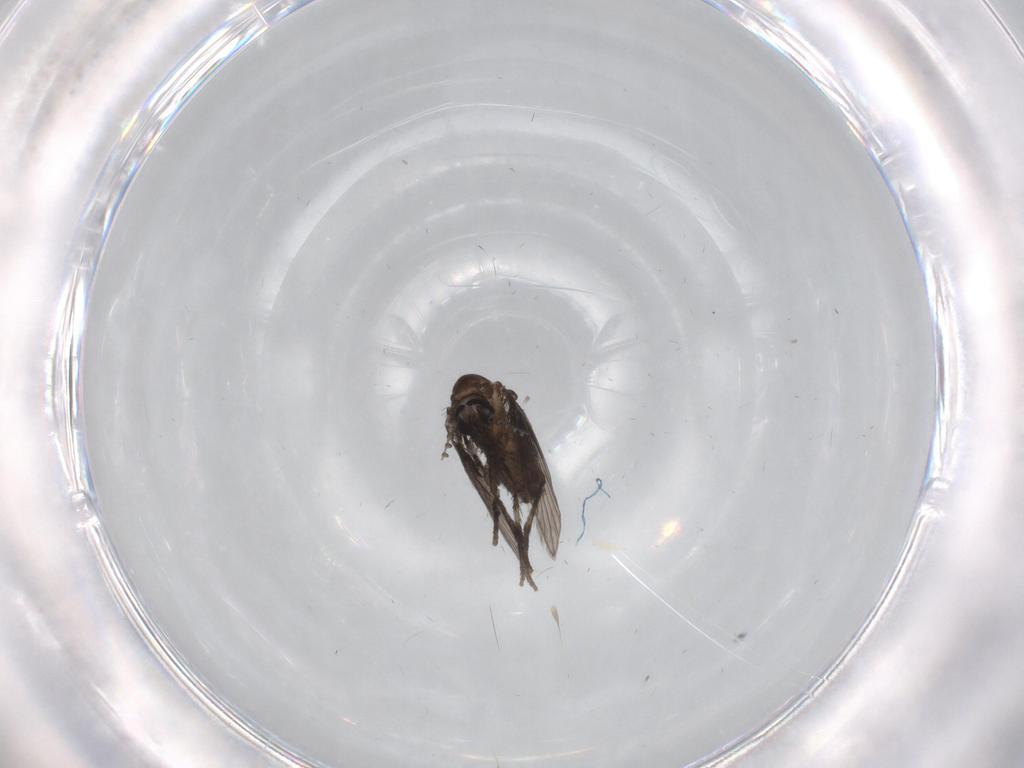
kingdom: Animalia
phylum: Arthropoda
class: Insecta
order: Diptera
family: Psychodidae
